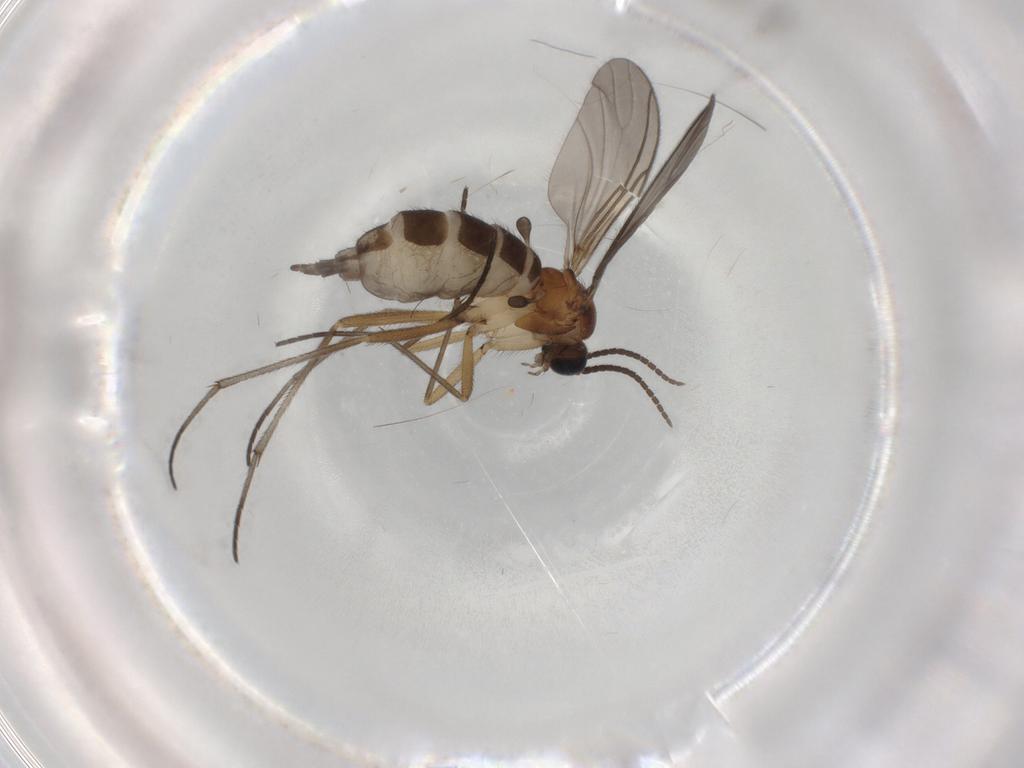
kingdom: Animalia
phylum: Arthropoda
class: Insecta
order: Diptera
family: Sciaridae
